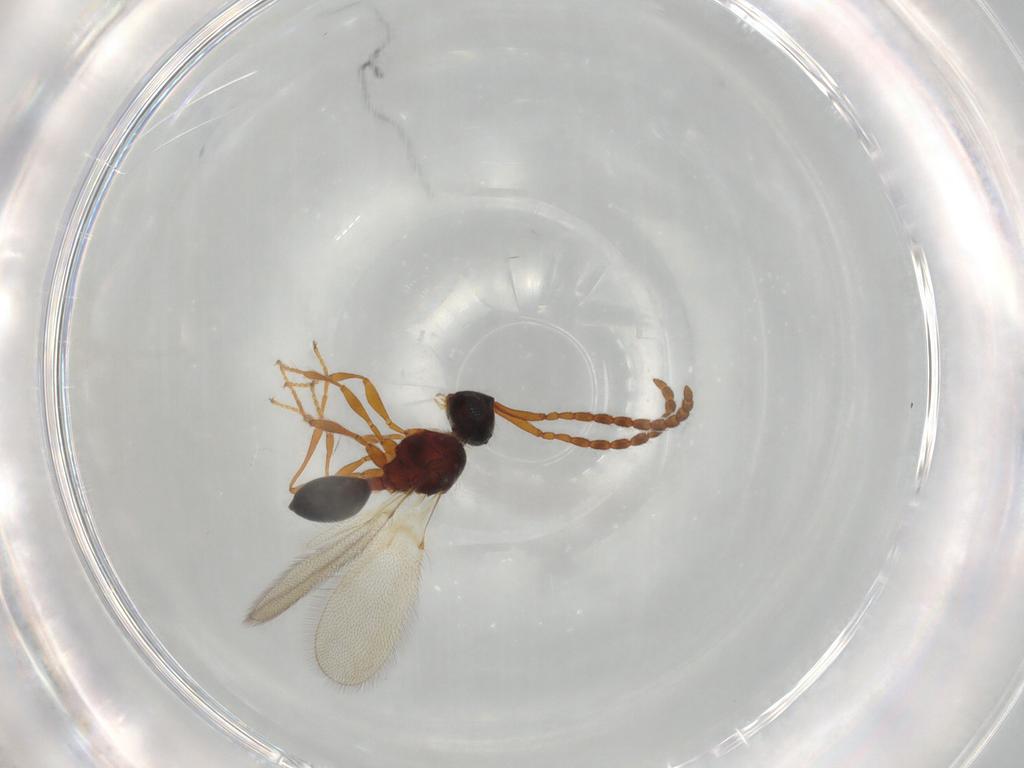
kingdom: Animalia
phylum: Arthropoda
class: Insecta
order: Hymenoptera
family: Diapriidae
